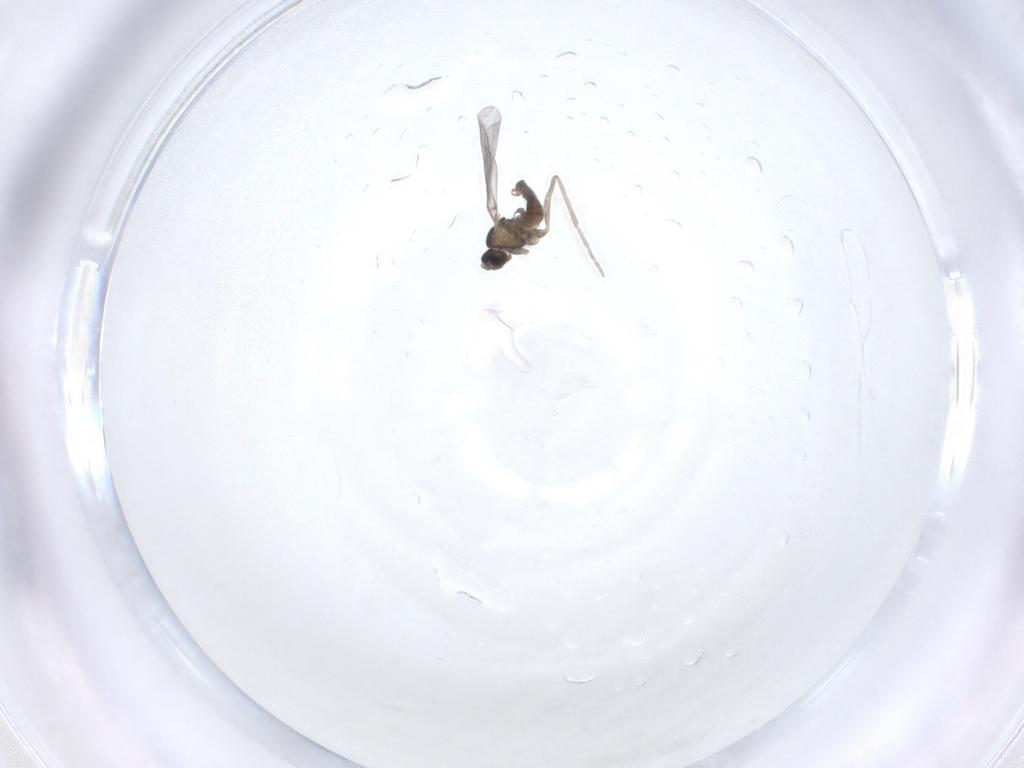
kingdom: Animalia
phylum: Arthropoda
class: Insecta
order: Diptera
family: Cecidomyiidae
